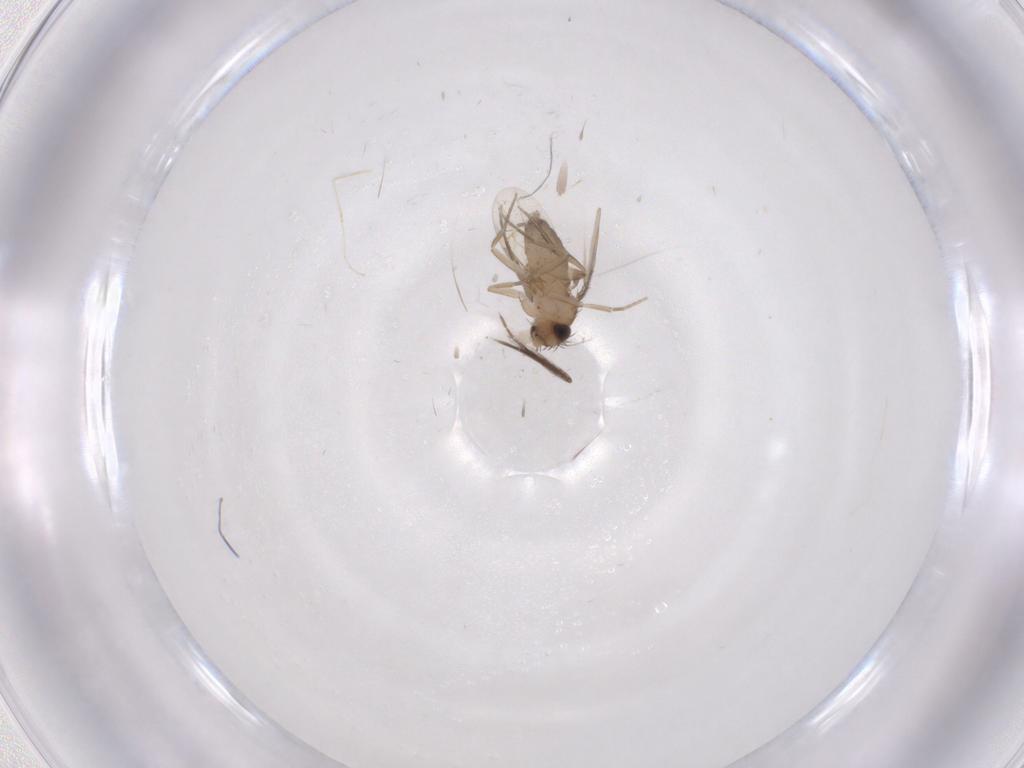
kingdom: Animalia
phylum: Arthropoda
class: Insecta
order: Diptera
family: Phoridae
